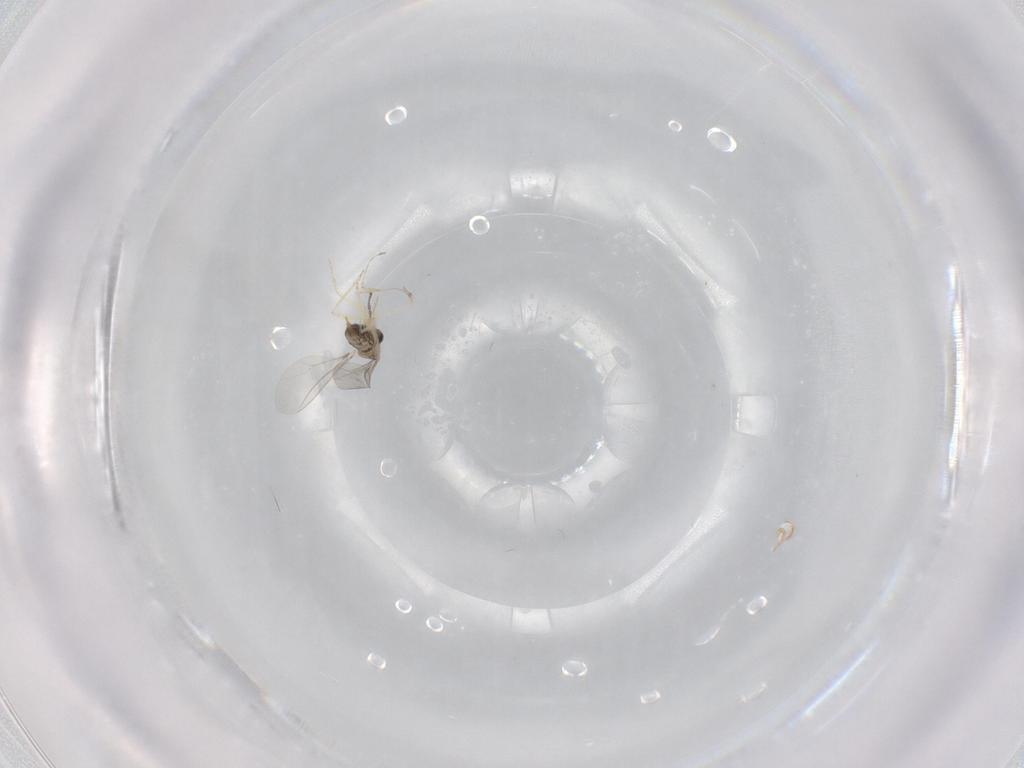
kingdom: Animalia
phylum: Arthropoda
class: Insecta
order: Diptera
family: Cecidomyiidae
